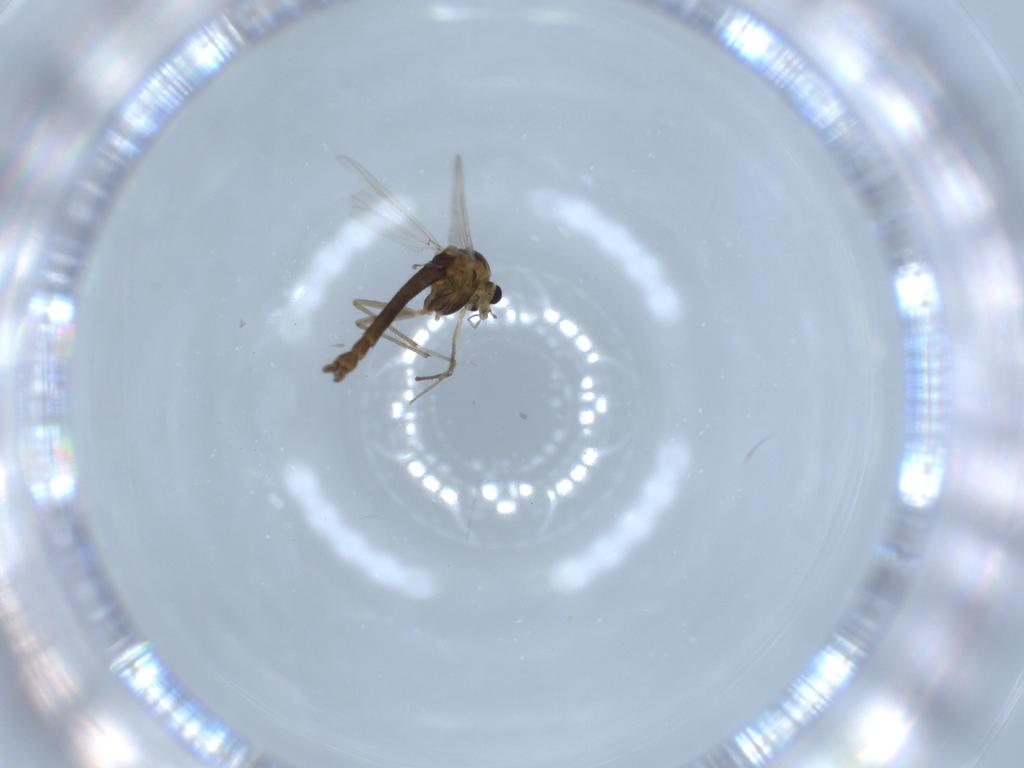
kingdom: Animalia
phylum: Arthropoda
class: Insecta
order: Diptera
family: Chironomidae
